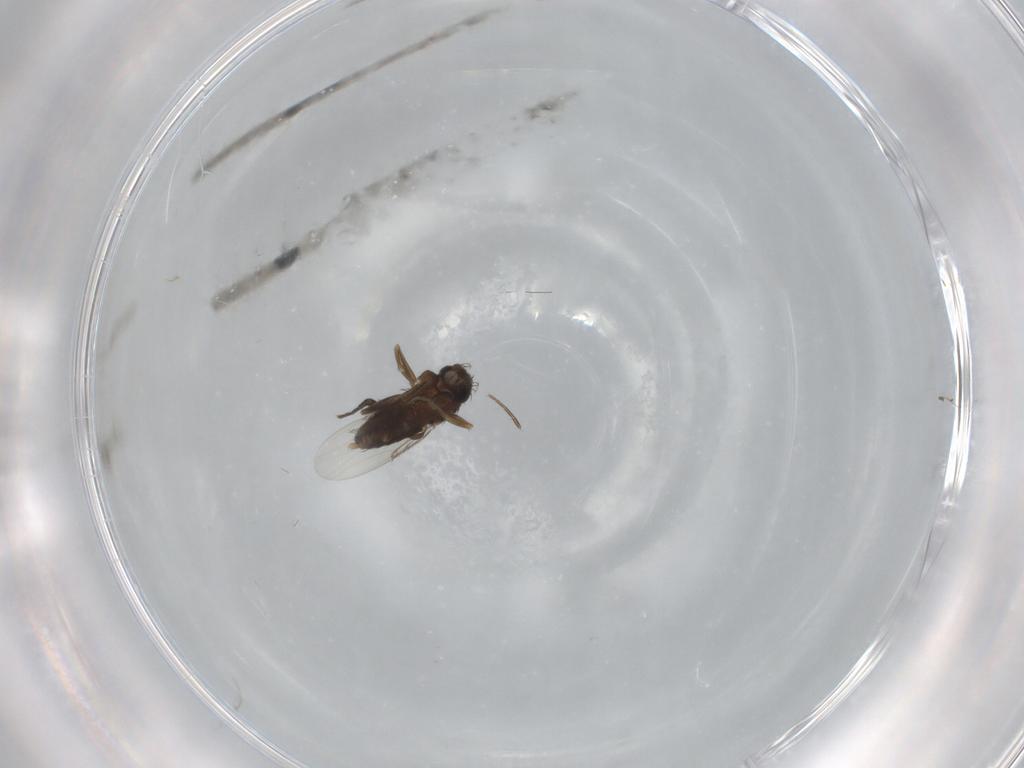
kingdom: Animalia
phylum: Arthropoda
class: Insecta
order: Diptera
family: Phoridae
